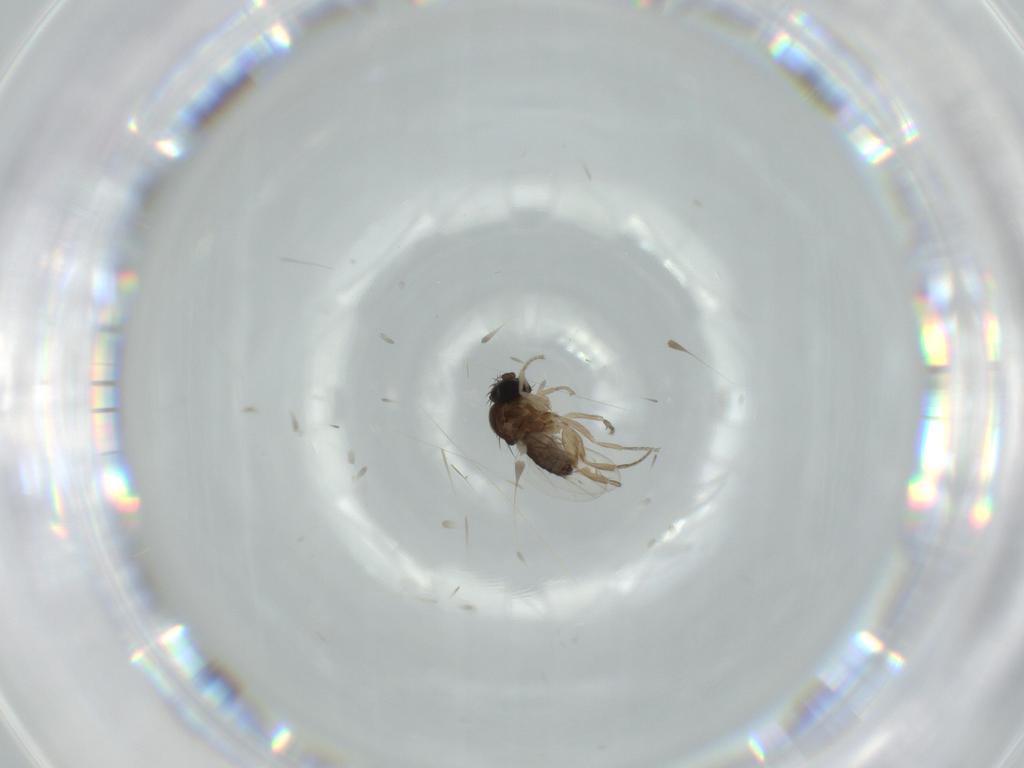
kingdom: Animalia
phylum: Arthropoda
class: Insecta
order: Diptera
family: Phoridae
